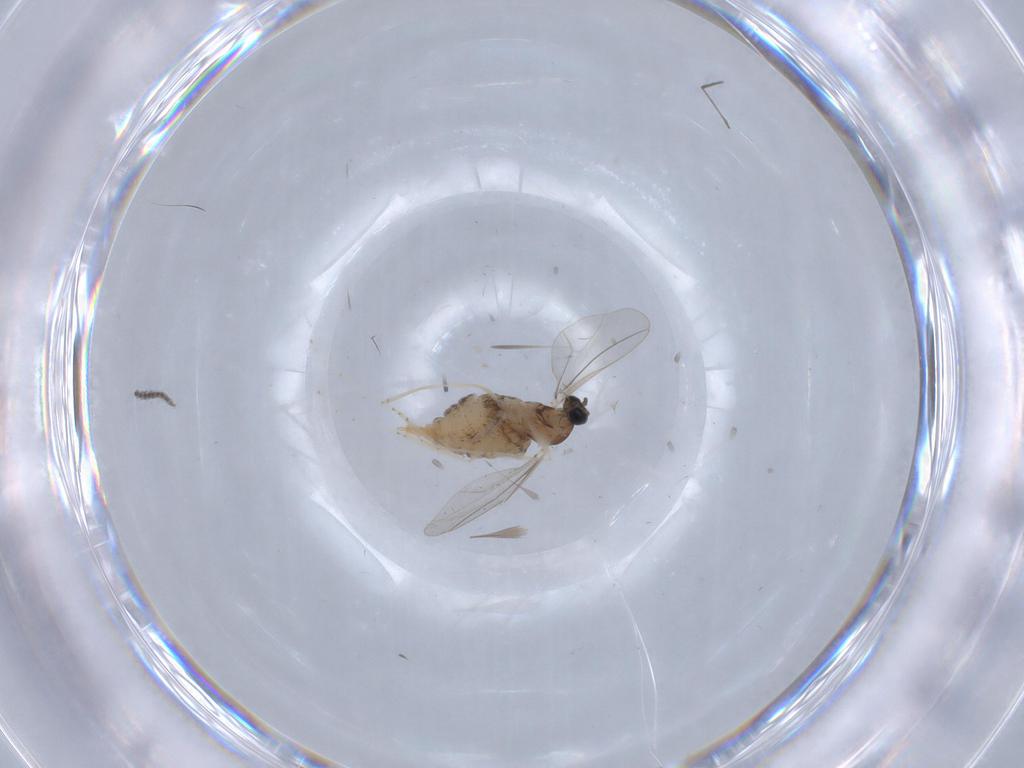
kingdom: Animalia
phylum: Arthropoda
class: Insecta
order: Diptera
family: Cecidomyiidae
